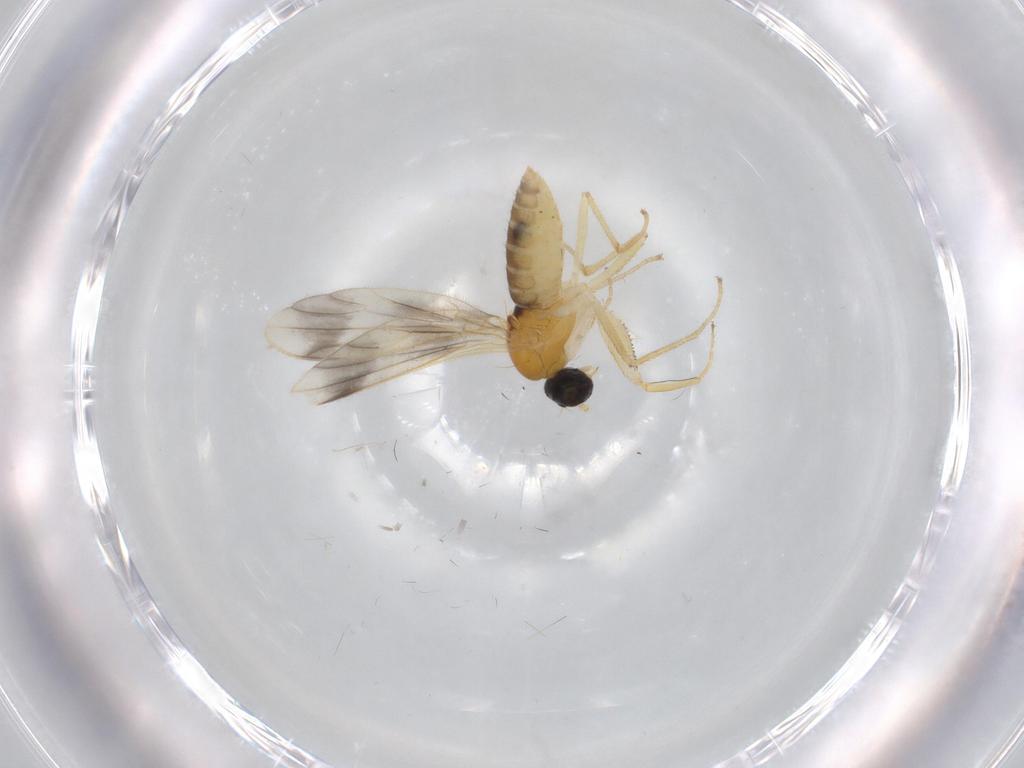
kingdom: Animalia
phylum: Arthropoda
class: Insecta
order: Diptera
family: Empididae
